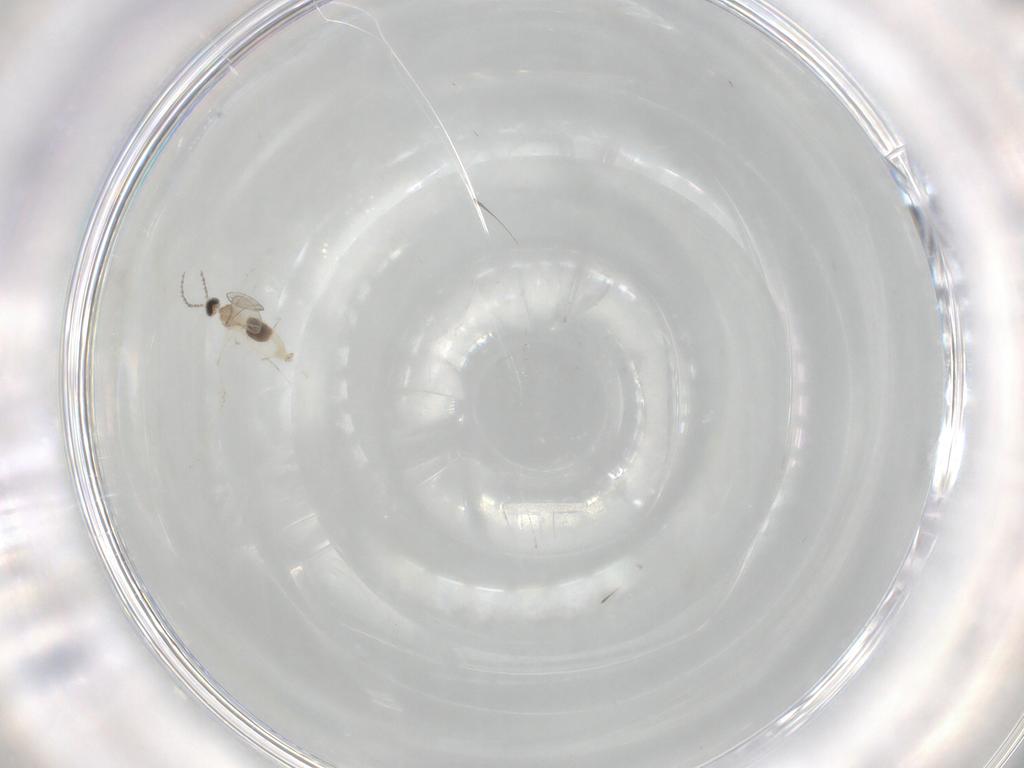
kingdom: Animalia
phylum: Arthropoda
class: Insecta
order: Diptera
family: Cecidomyiidae
